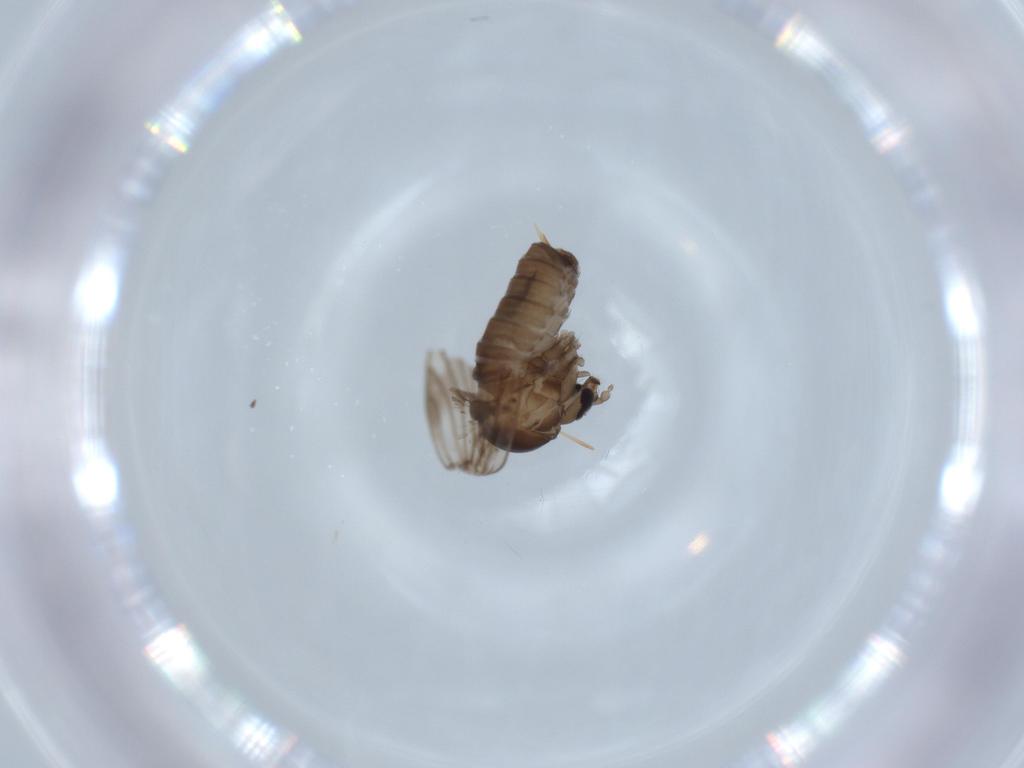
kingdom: Animalia
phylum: Arthropoda
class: Insecta
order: Diptera
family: Psychodidae
